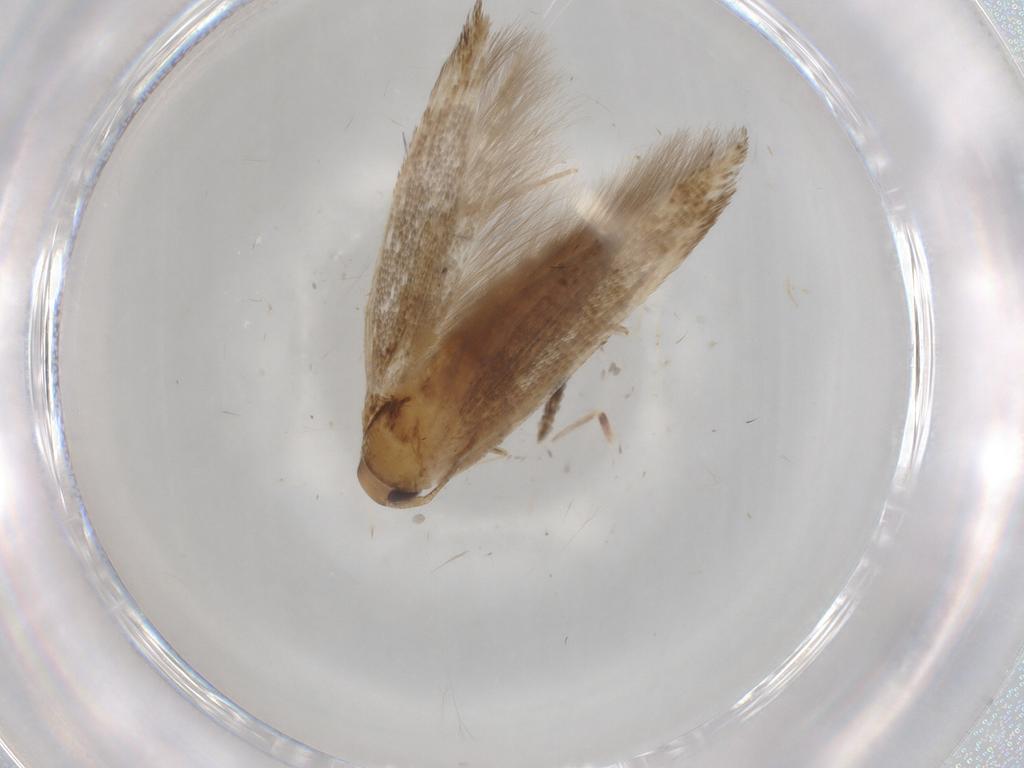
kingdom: Animalia
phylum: Arthropoda
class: Insecta
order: Lepidoptera
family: Cosmopterigidae
